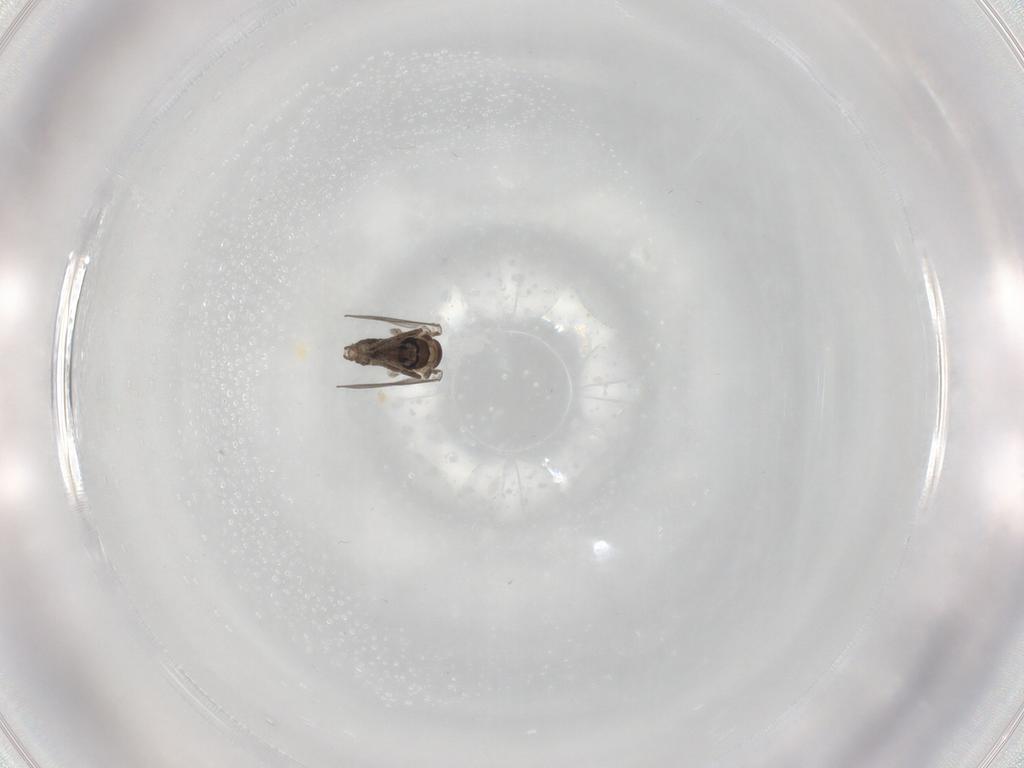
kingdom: Animalia
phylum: Arthropoda
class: Insecta
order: Diptera
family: Psychodidae
